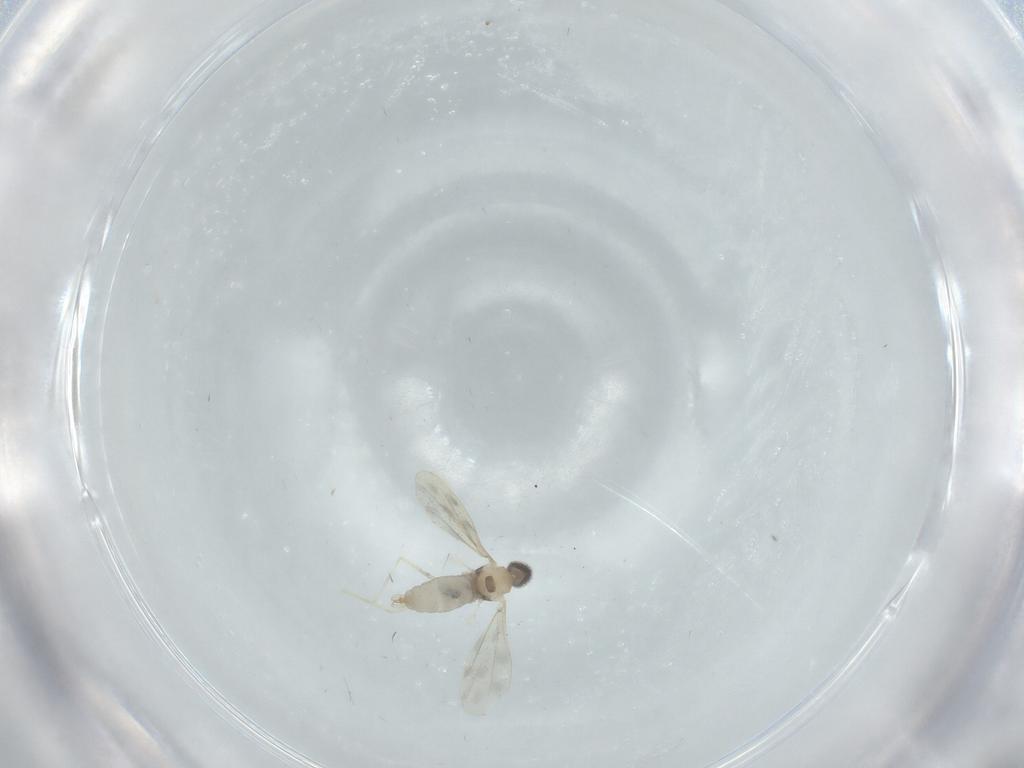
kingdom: Animalia
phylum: Arthropoda
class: Insecta
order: Diptera
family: Cecidomyiidae
